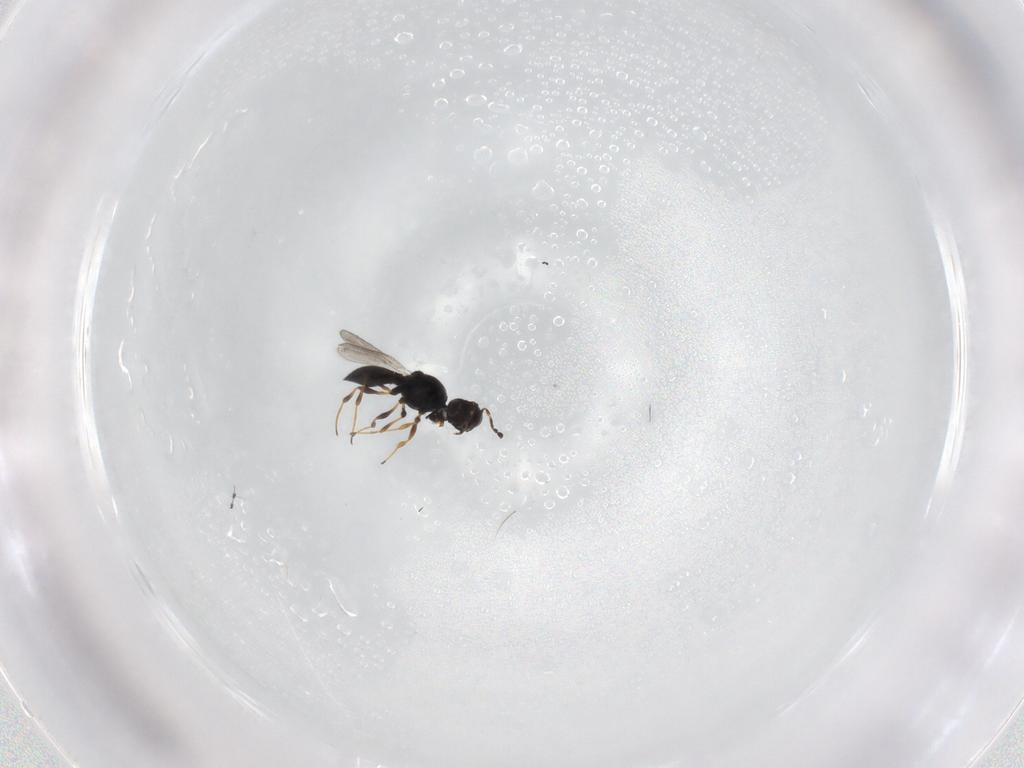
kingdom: Animalia
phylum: Arthropoda
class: Insecta
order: Hymenoptera
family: Platygastridae
